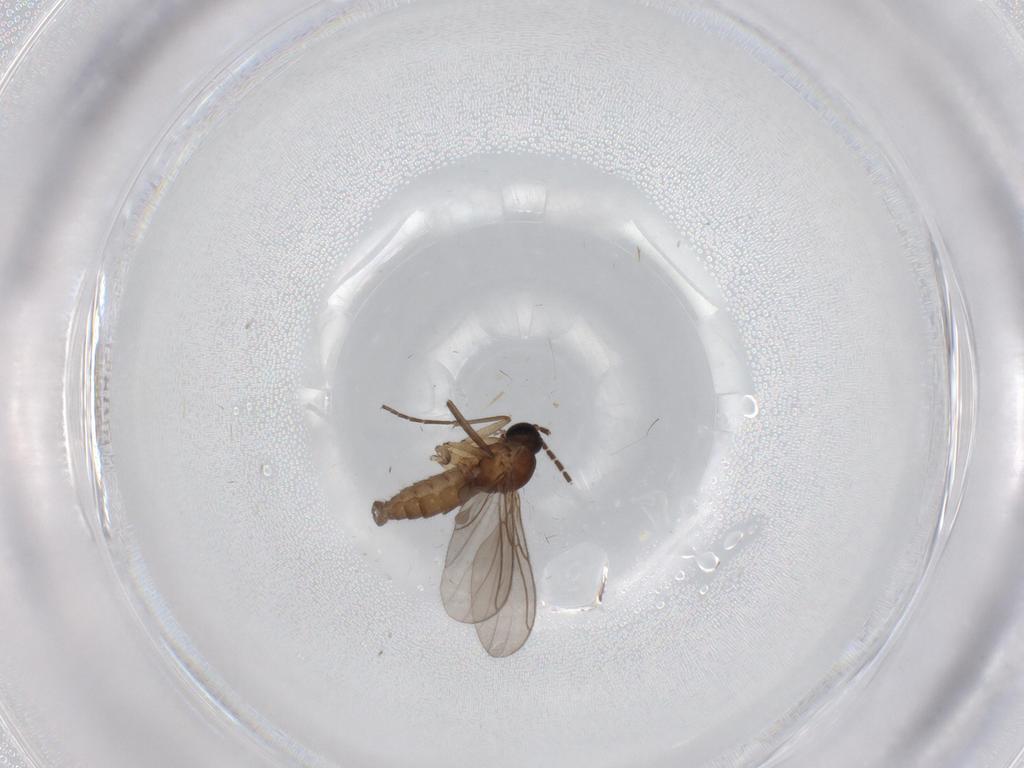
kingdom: Animalia
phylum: Arthropoda
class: Insecta
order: Diptera
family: Sciaridae
